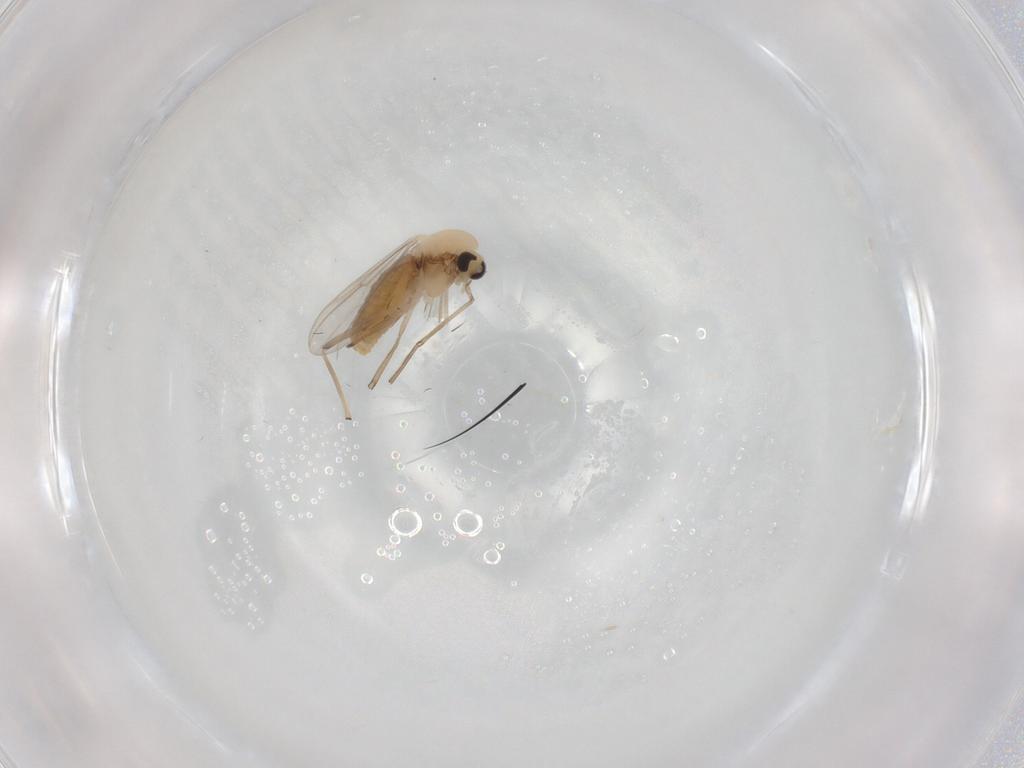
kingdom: Animalia
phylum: Arthropoda
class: Insecta
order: Diptera
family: Chironomidae
